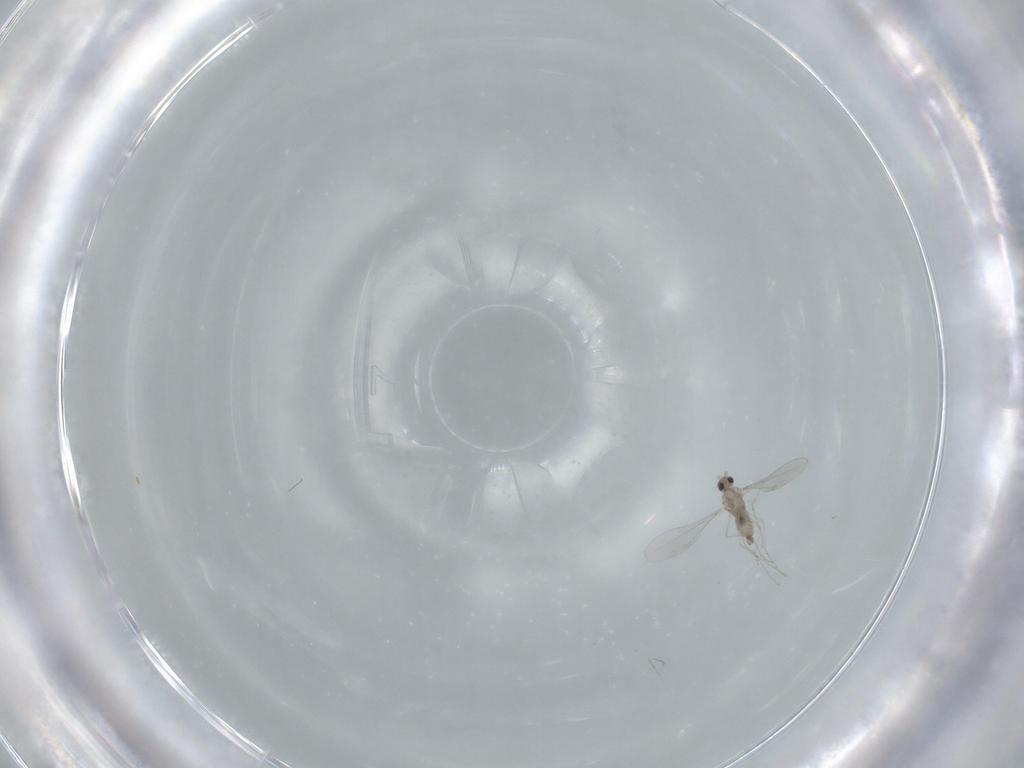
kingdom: Animalia
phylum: Arthropoda
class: Insecta
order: Diptera
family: Cecidomyiidae
